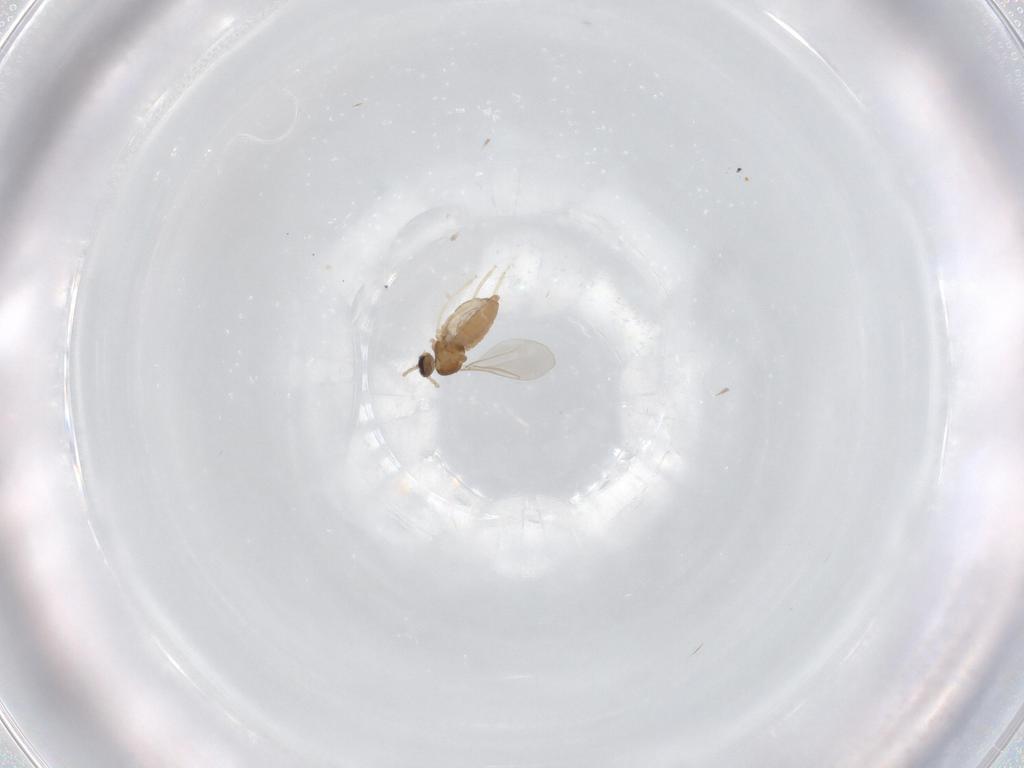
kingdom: Animalia
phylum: Arthropoda
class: Insecta
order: Diptera
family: Cecidomyiidae
